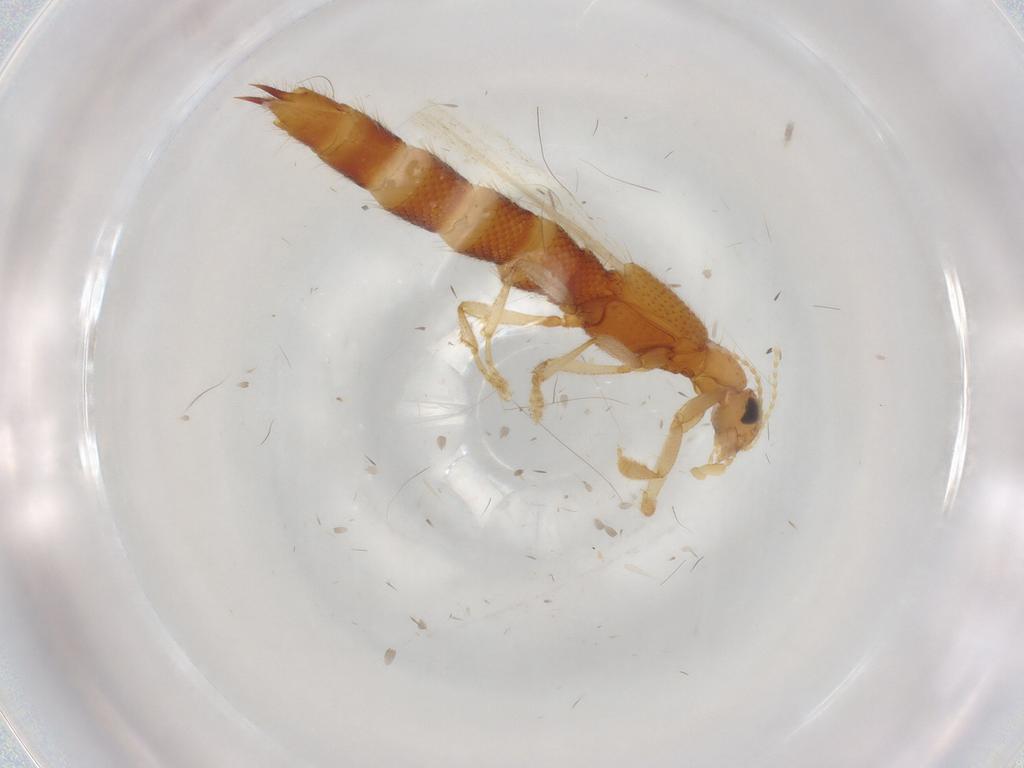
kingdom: Animalia
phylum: Arthropoda
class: Insecta
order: Coleoptera
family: Staphylinidae
